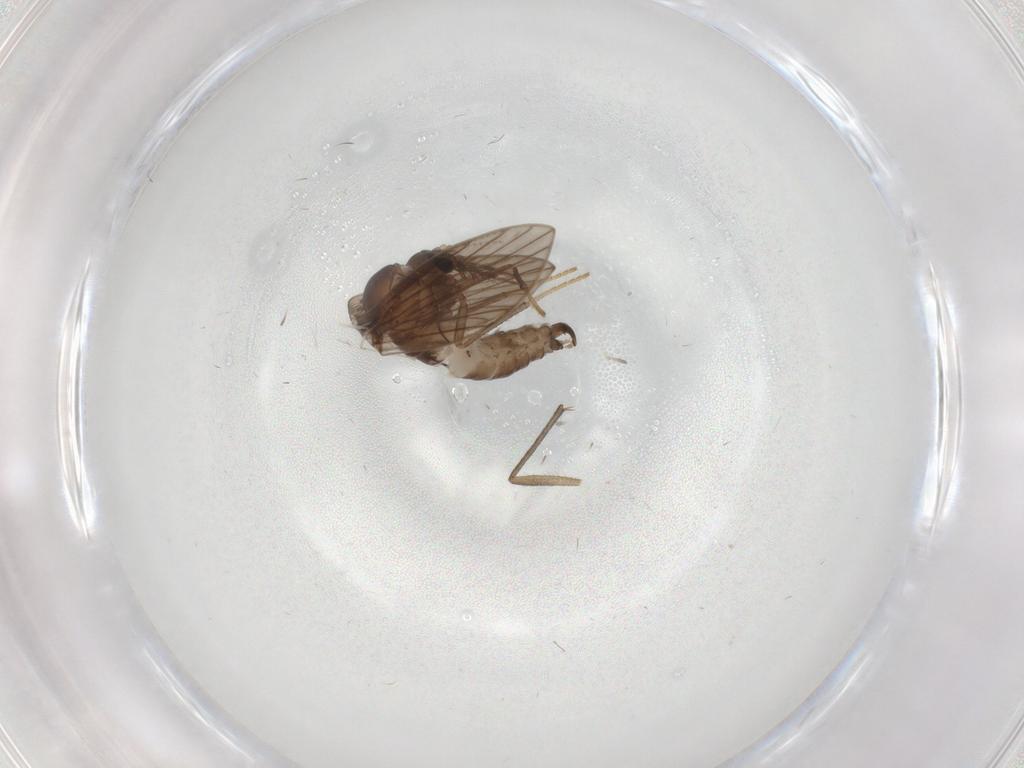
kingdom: Animalia
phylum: Arthropoda
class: Insecta
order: Diptera
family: Psychodidae
